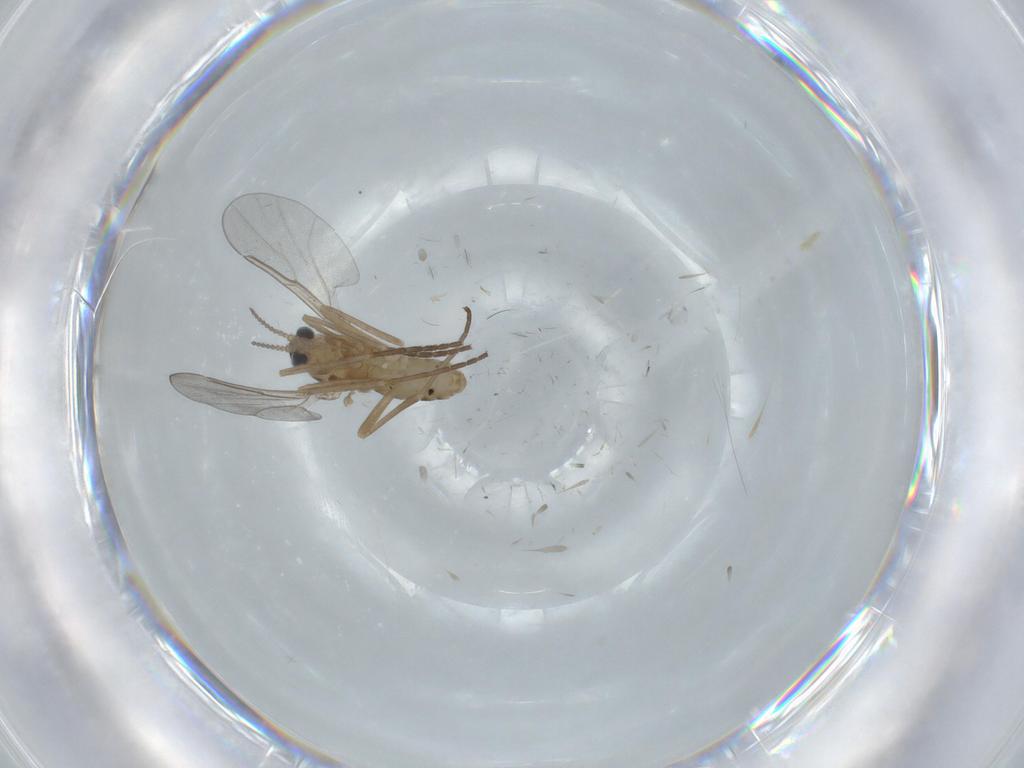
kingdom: Animalia
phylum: Arthropoda
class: Insecta
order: Diptera
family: Cecidomyiidae
